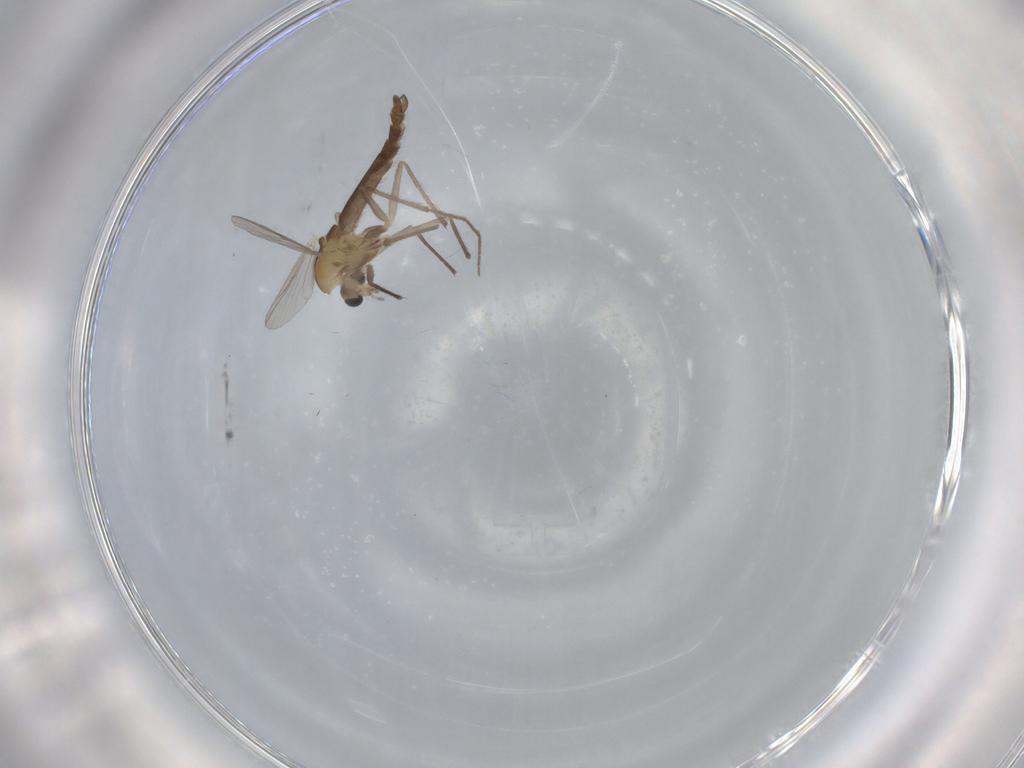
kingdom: Animalia
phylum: Arthropoda
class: Insecta
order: Diptera
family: Chironomidae
